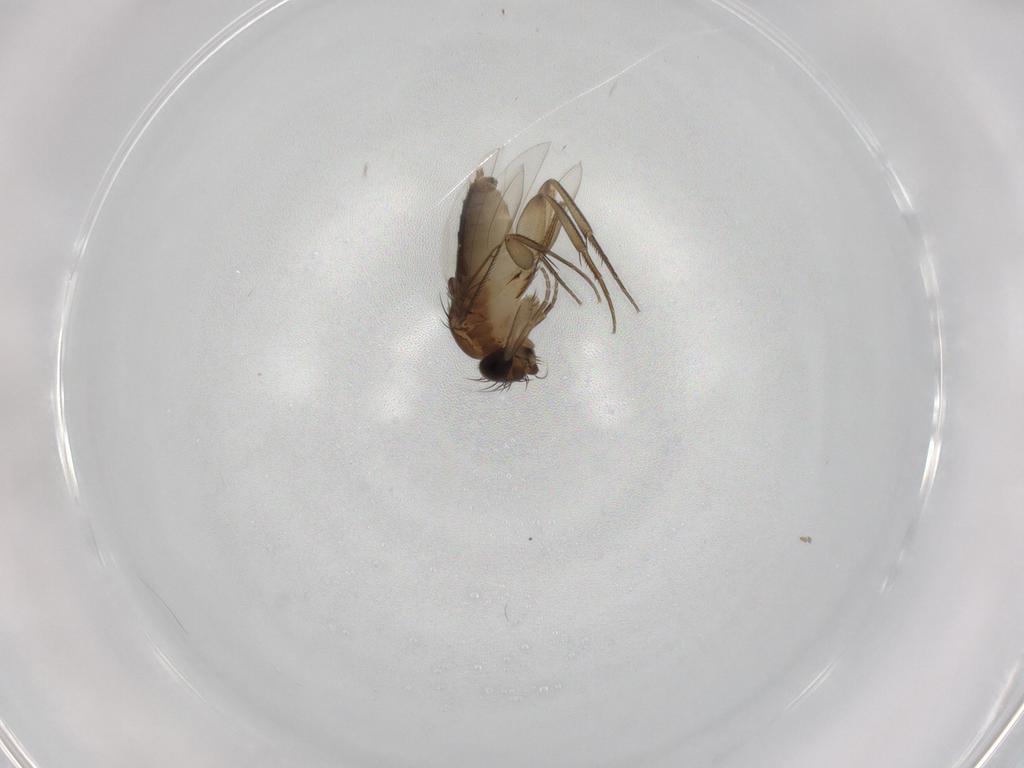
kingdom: Animalia
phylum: Arthropoda
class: Insecta
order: Diptera
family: Phoridae
